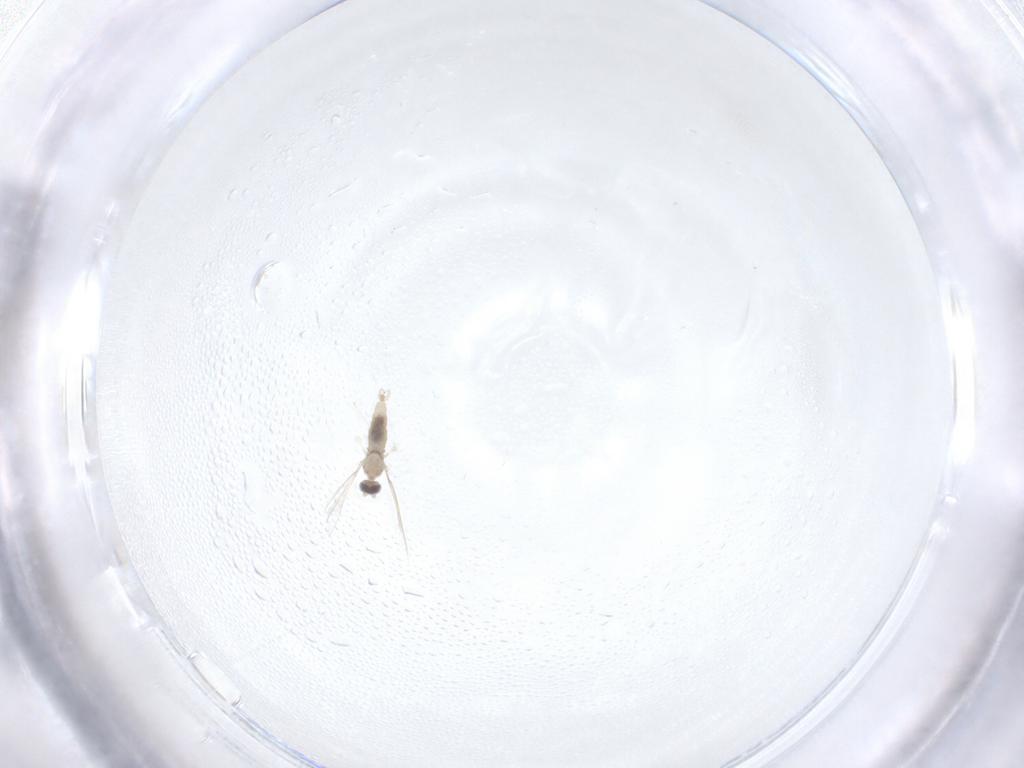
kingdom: Animalia
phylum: Arthropoda
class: Insecta
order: Diptera
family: Cecidomyiidae
